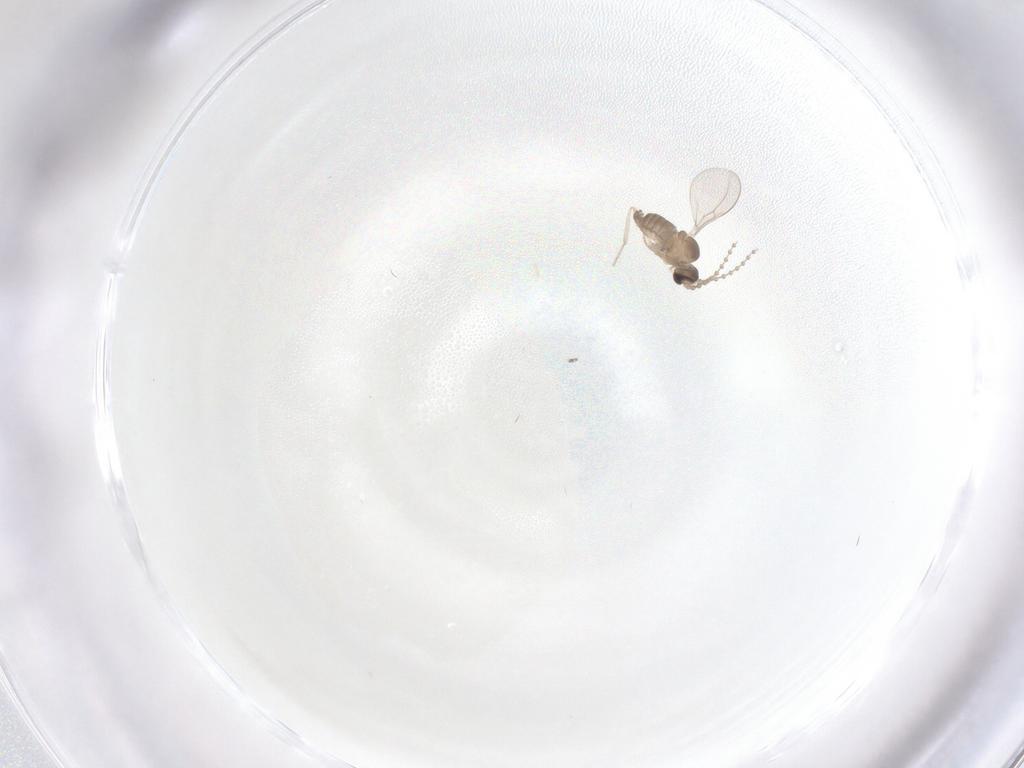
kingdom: Animalia
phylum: Arthropoda
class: Insecta
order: Diptera
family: Cecidomyiidae
